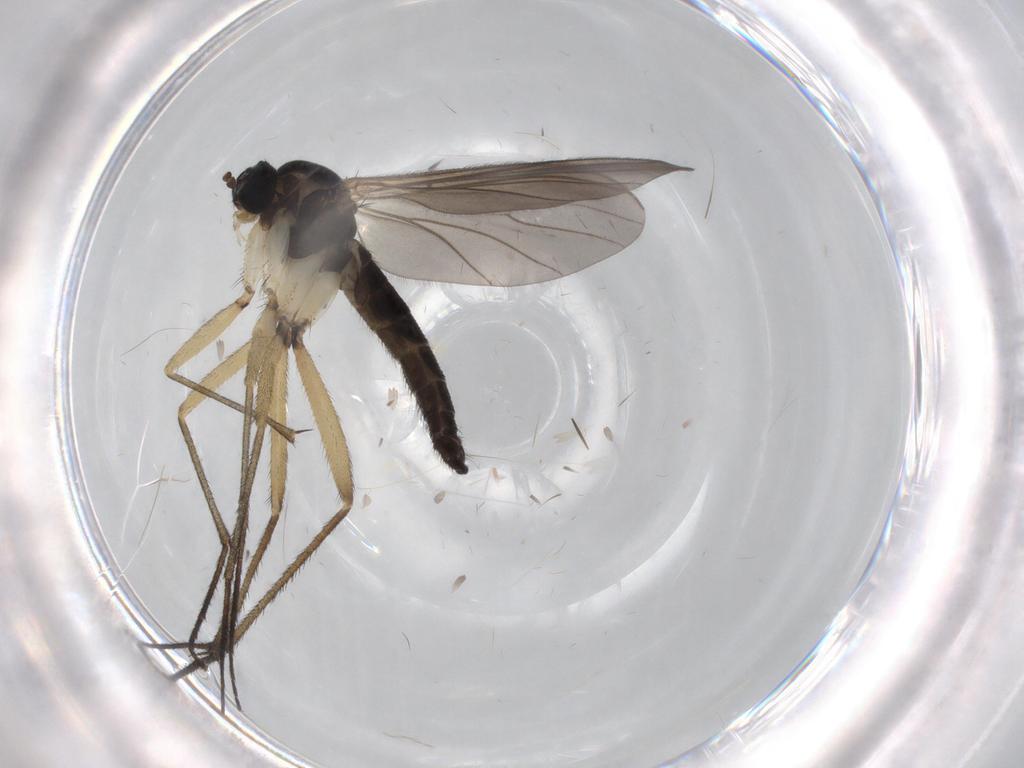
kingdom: Animalia
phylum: Arthropoda
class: Insecta
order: Diptera
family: Sciaridae
